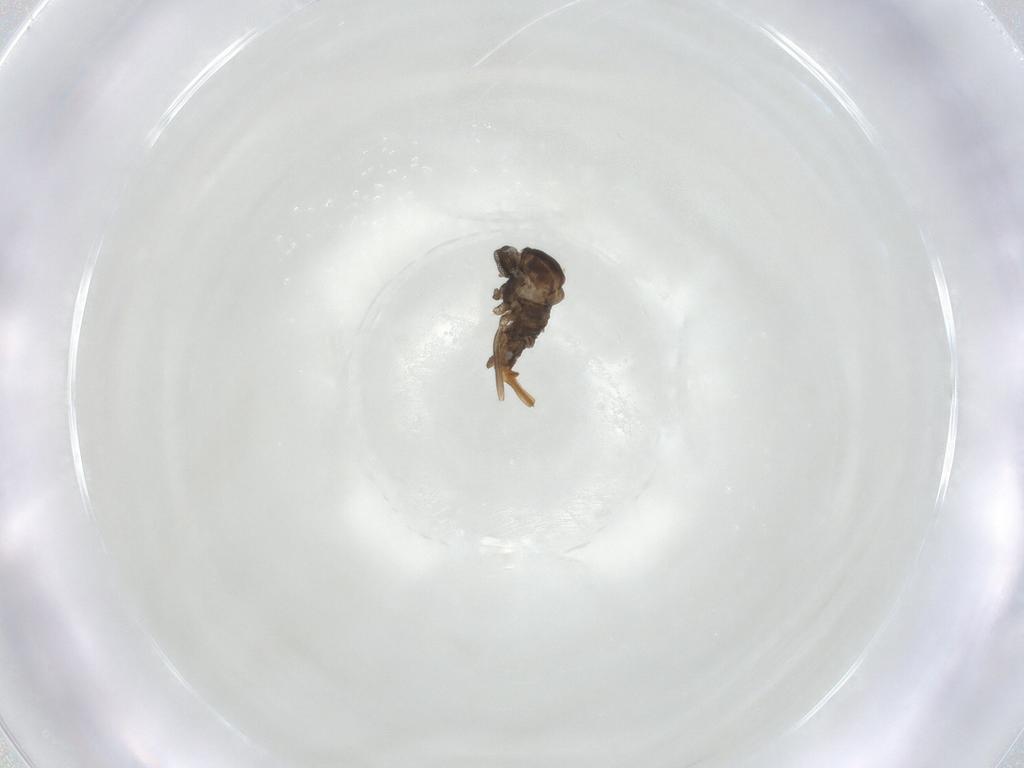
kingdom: Animalia
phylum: Arthropoda
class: Insecta
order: Diptera
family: Cecidomyiidae
